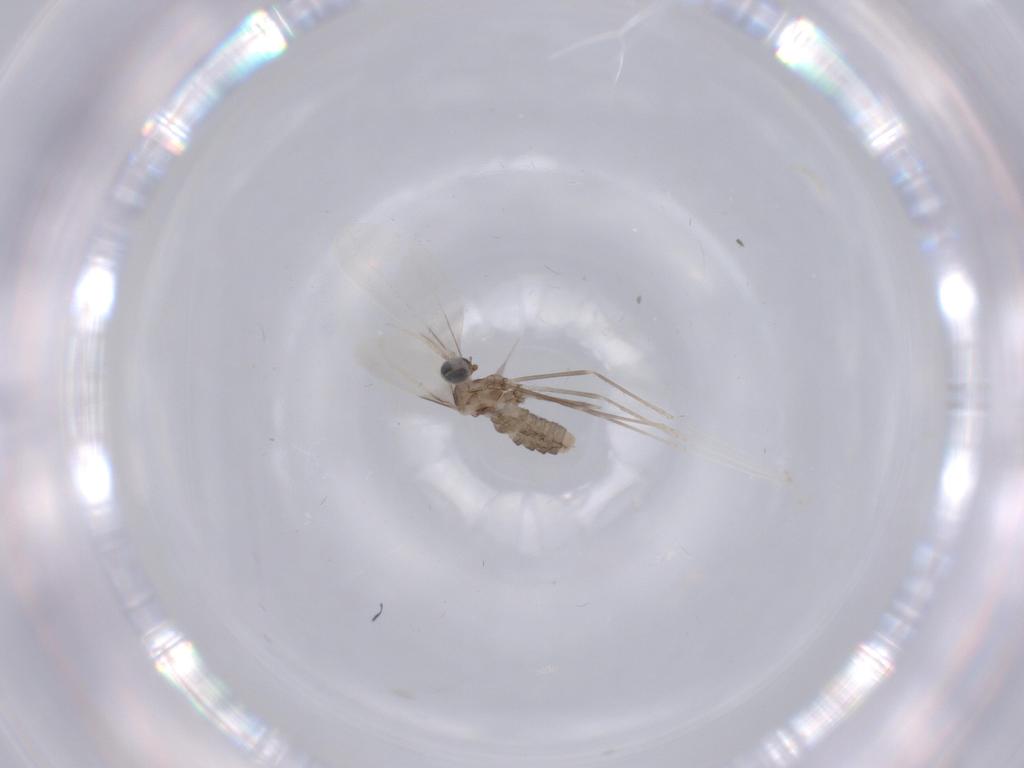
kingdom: Animalia
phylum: Arthropoda
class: Insecta
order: Diptera
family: Cecidomyiidae
